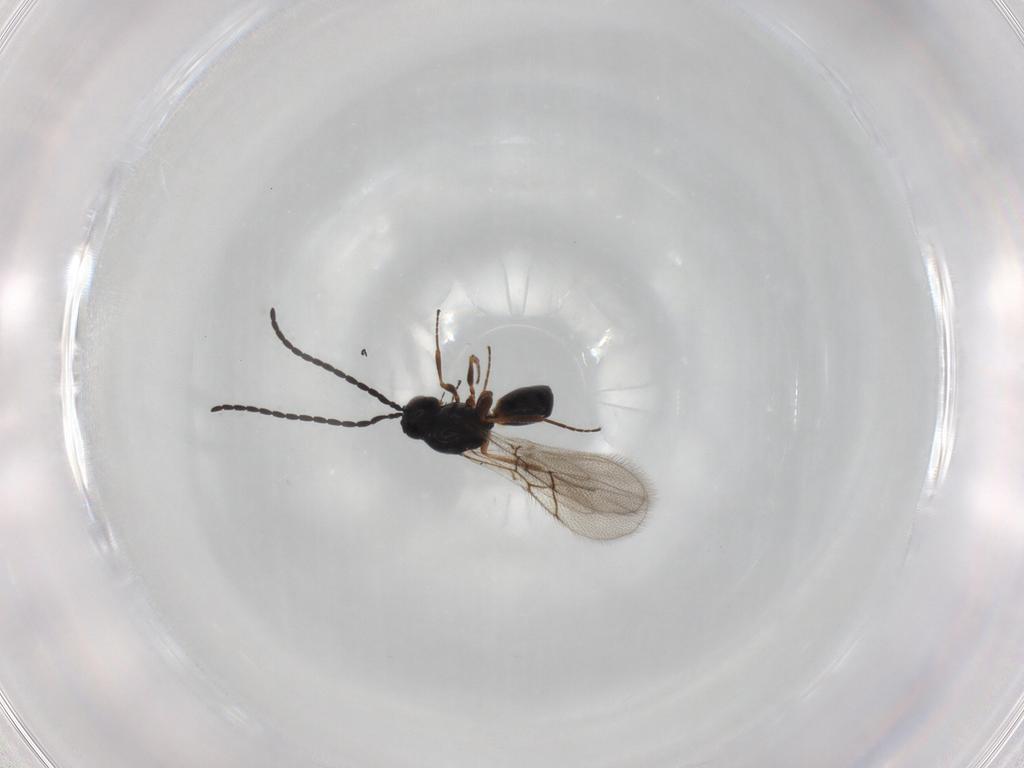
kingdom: Animalia
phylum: Arthropoda
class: Insecta
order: Hymenoptera
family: Figitidae
